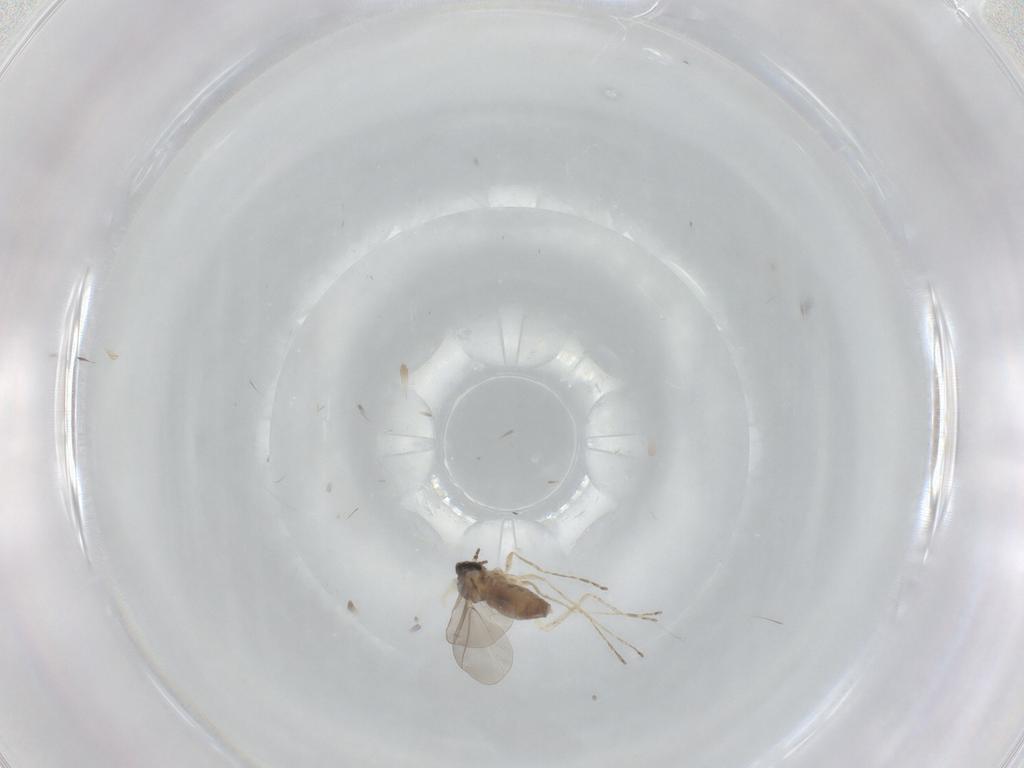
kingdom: Animalia
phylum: Arthropoda
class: Insecta
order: Diptera
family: Cecidomyiidae
